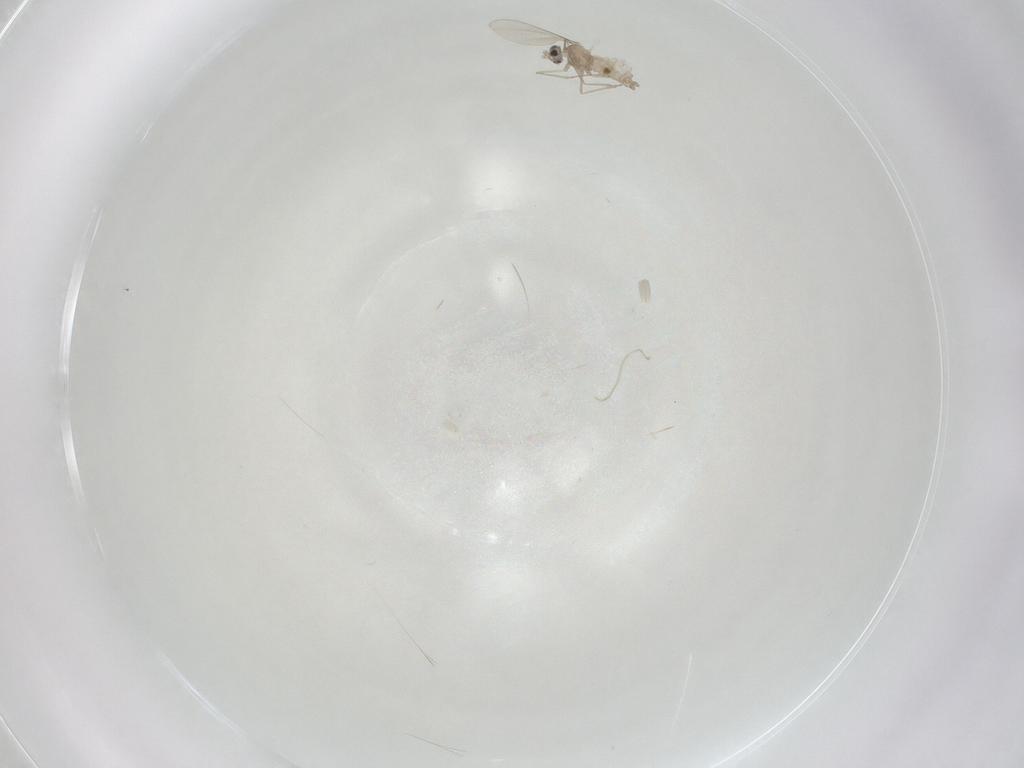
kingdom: Animalia
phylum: Arthropoda
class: Insecta
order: Diptera
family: Cecidomyiidae
